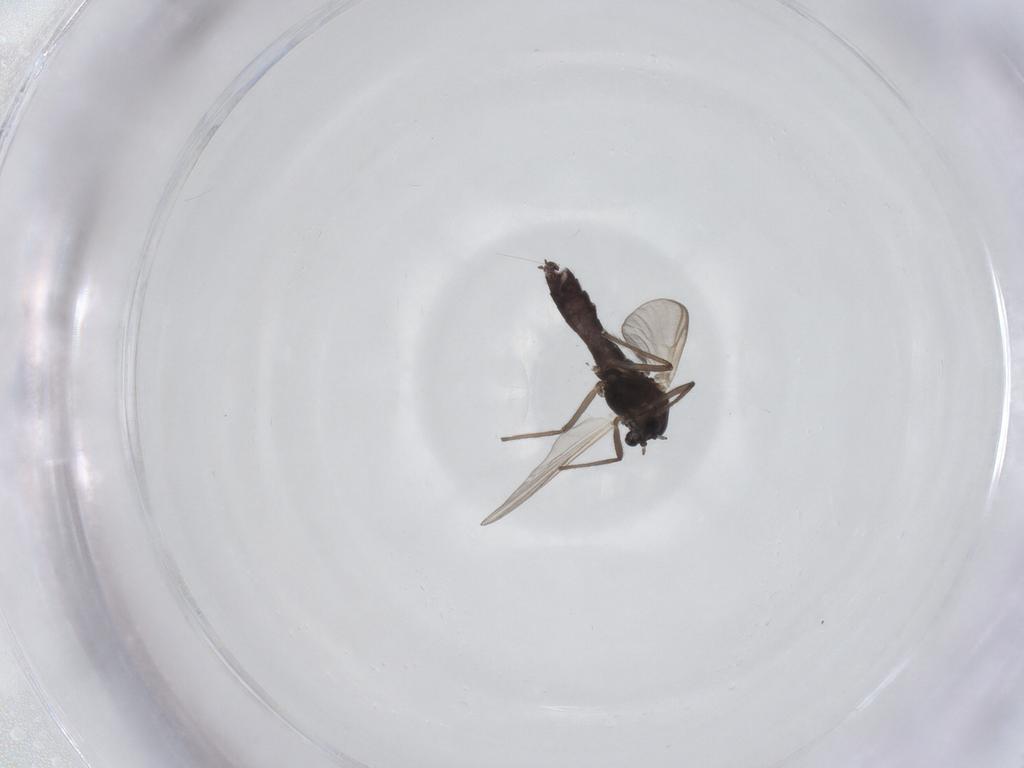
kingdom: Animalia
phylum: Arthropoda
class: Insecta
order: Diptera
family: Chironomidae
